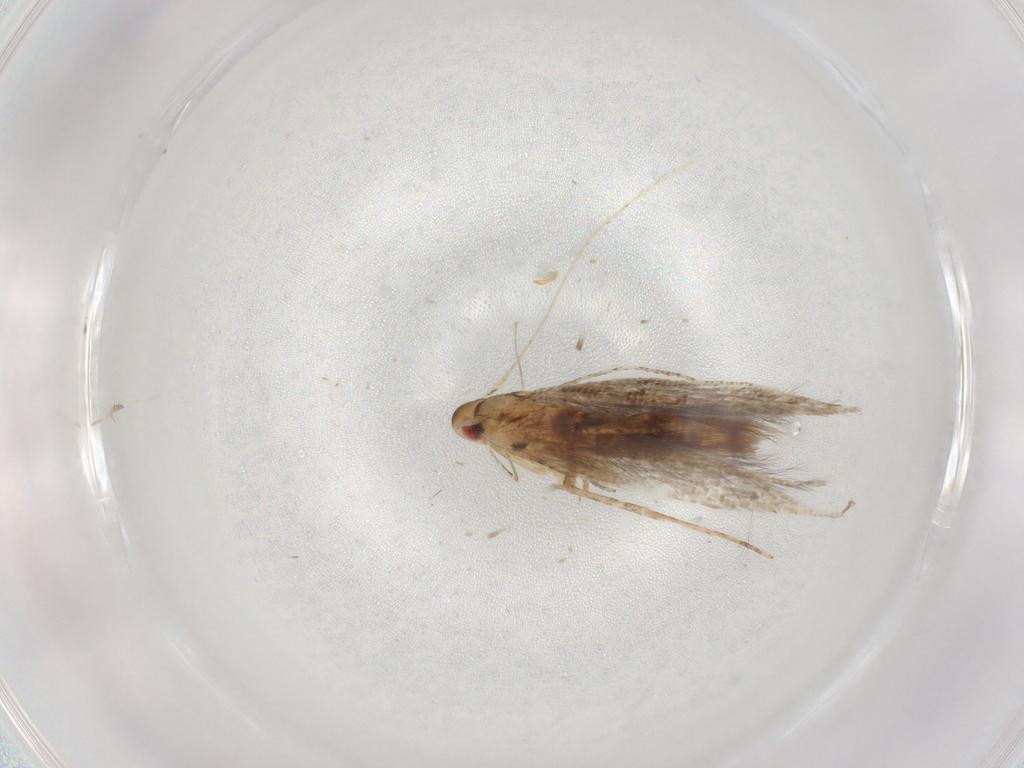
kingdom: Animalia
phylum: Arthropoda
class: Insecta
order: Lepidoptera
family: Cosmopterigidae
